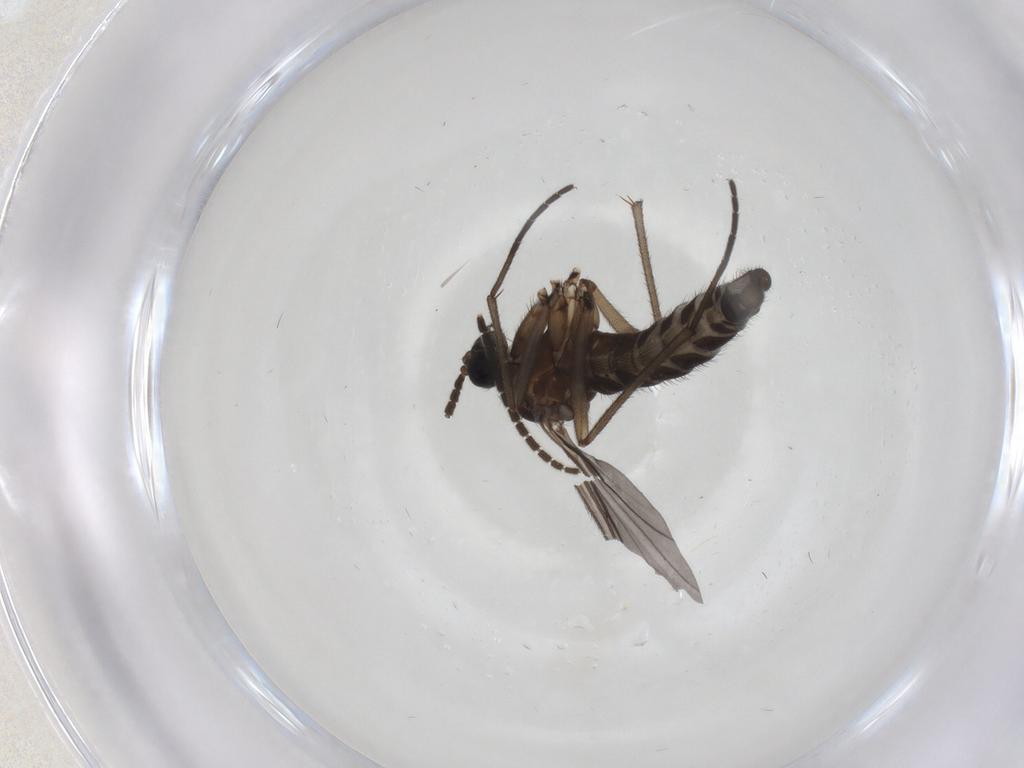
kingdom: Animalia
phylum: Arthropoda
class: Insecta
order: Diptera
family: Sciaridae
